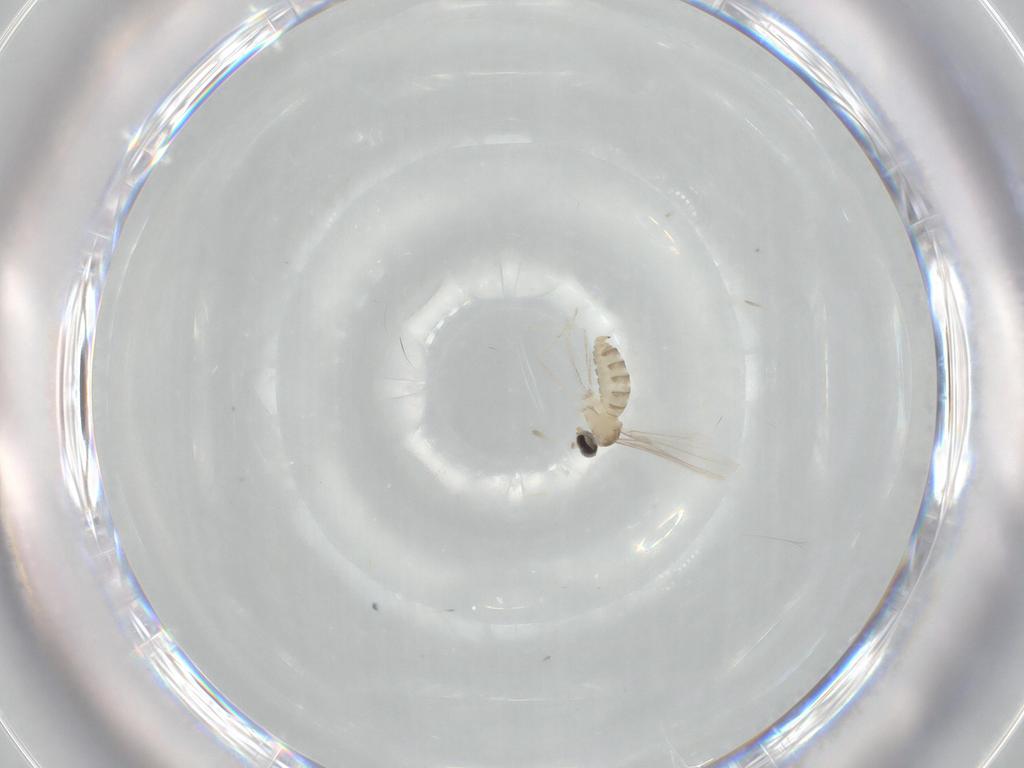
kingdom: Animalia
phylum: Arthropoda
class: Insecta
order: Diptera
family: Cecidomyiidae
